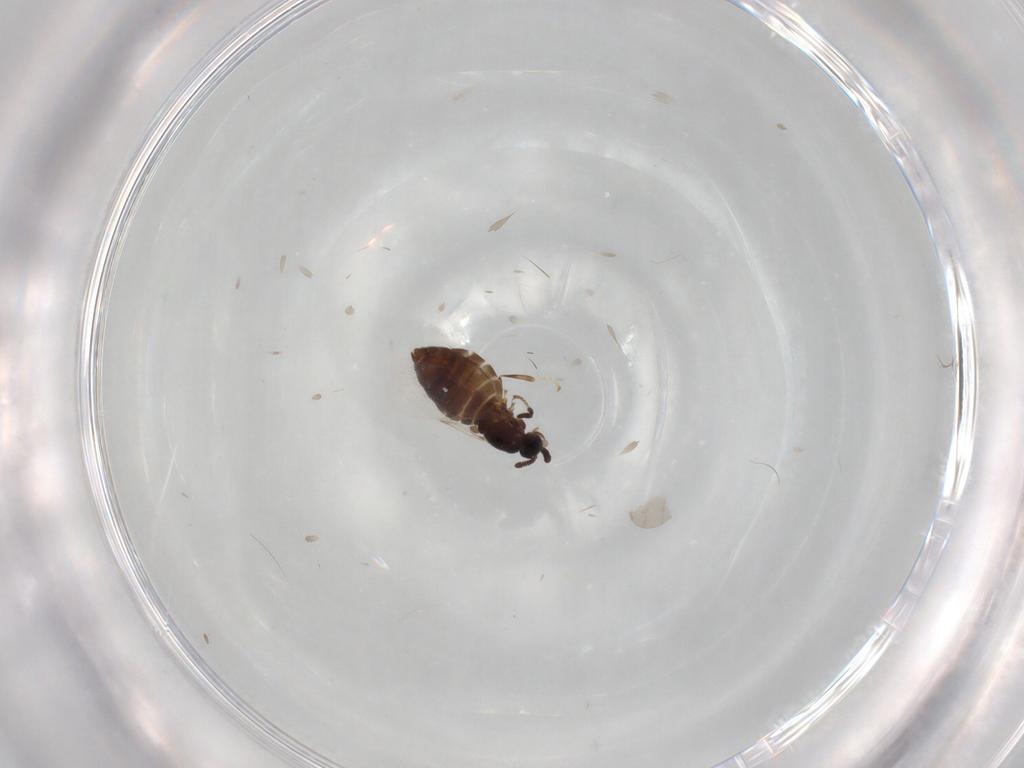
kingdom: Animalia
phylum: Arthropoda
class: Insecta
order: Diptera
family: Scatopsidae
